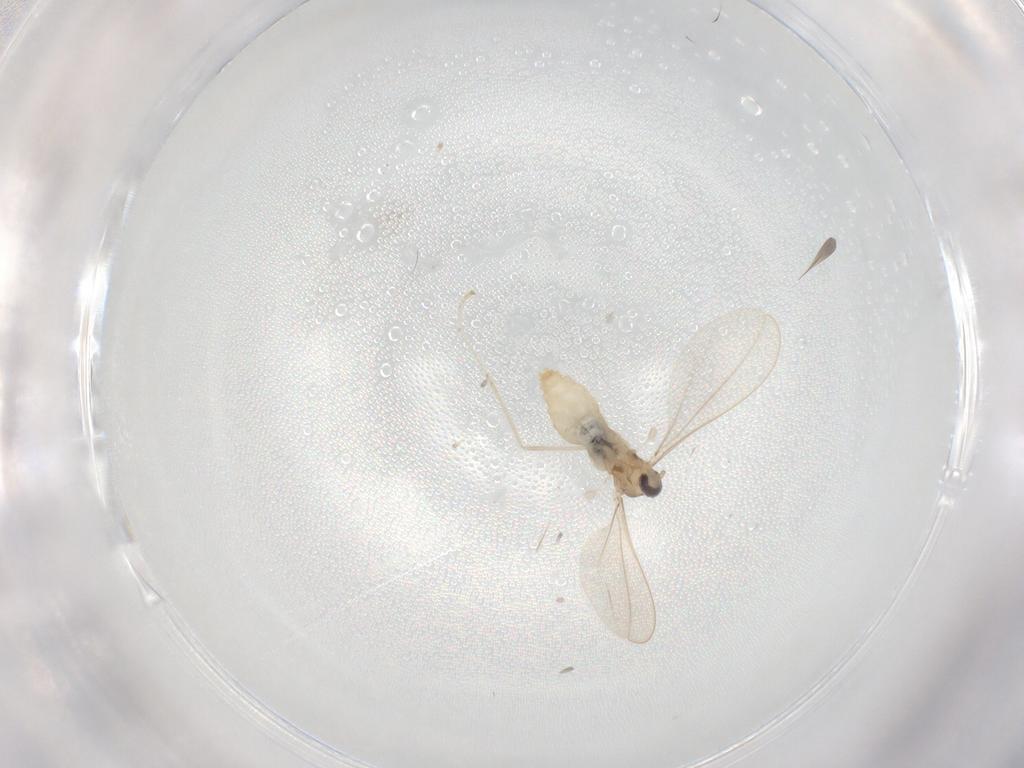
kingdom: Animalia
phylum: Arthropoda
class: Insecta
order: Diptera
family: Cecidomyiidae
